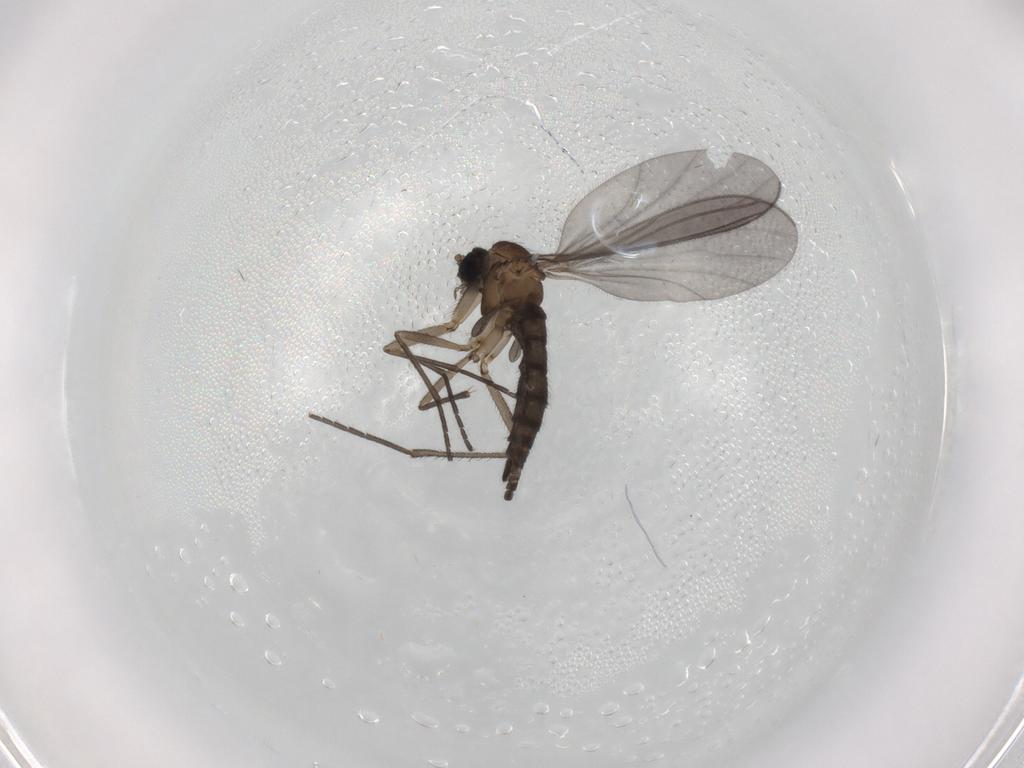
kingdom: Animalia
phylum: Arthropoda
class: Insecta
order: Diptera
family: Sciaridae
